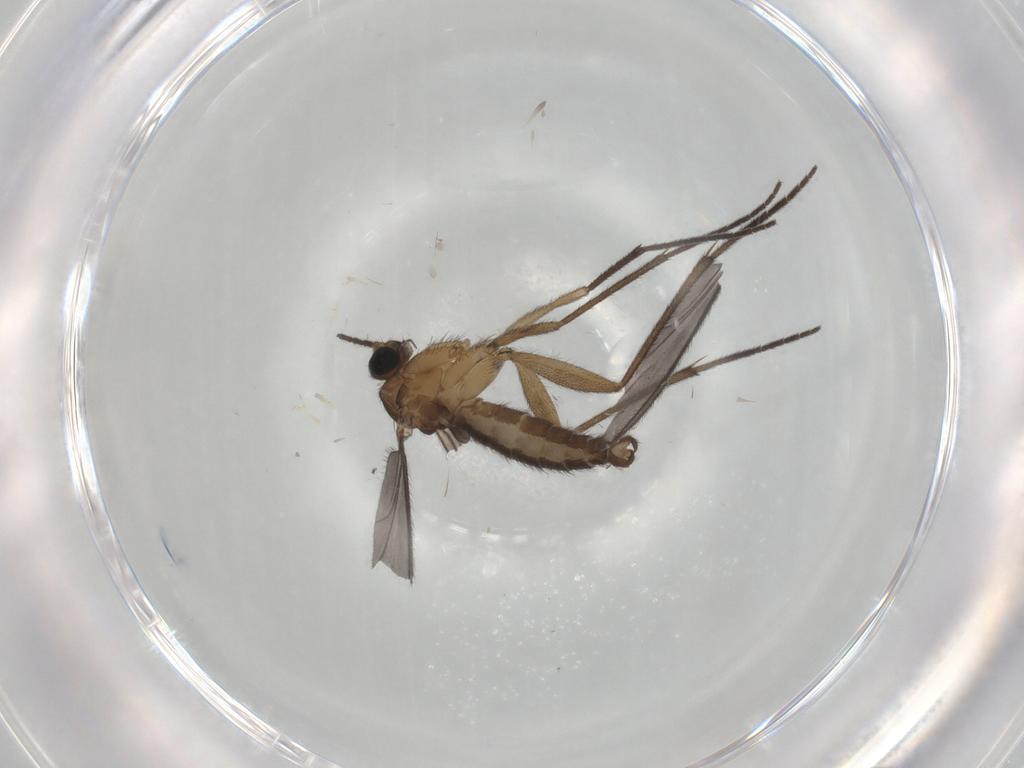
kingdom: Animalia
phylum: Arthropoda
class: Insecta
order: Diptera
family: Sciaridae
